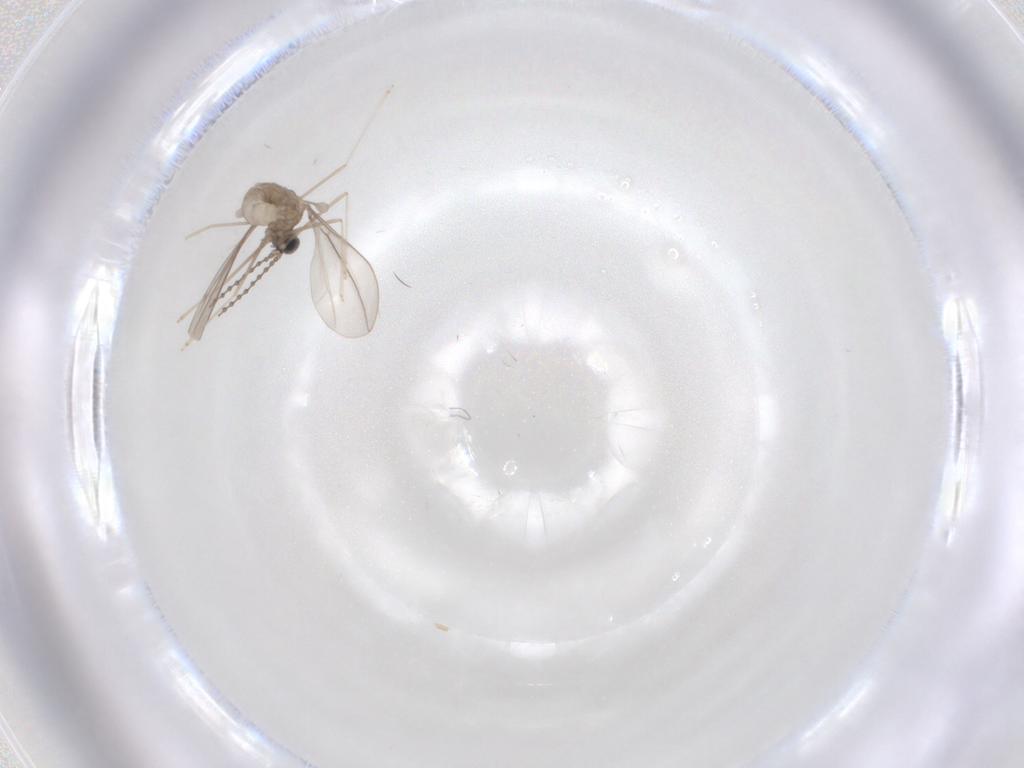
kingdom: Animalia
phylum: Arthropoda
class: Insecta
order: Diptera
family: Cecidomyiidae
